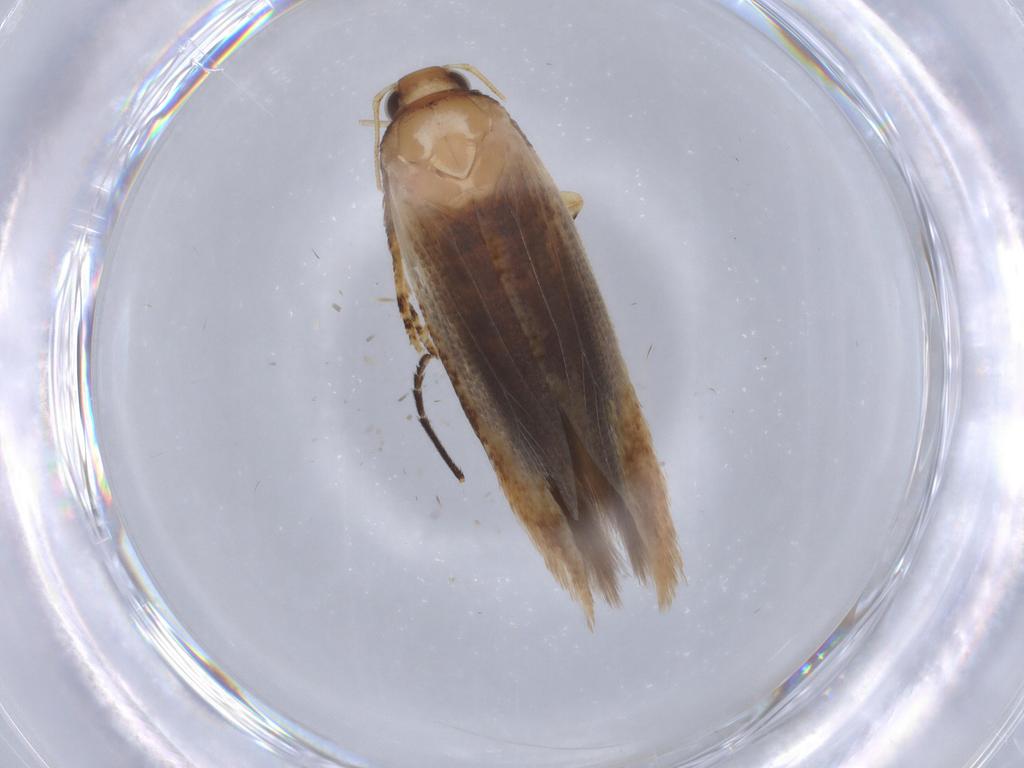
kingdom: Animalia
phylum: Arthropoda
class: Insecta
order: Lepidoptera
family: Gelechiidae
